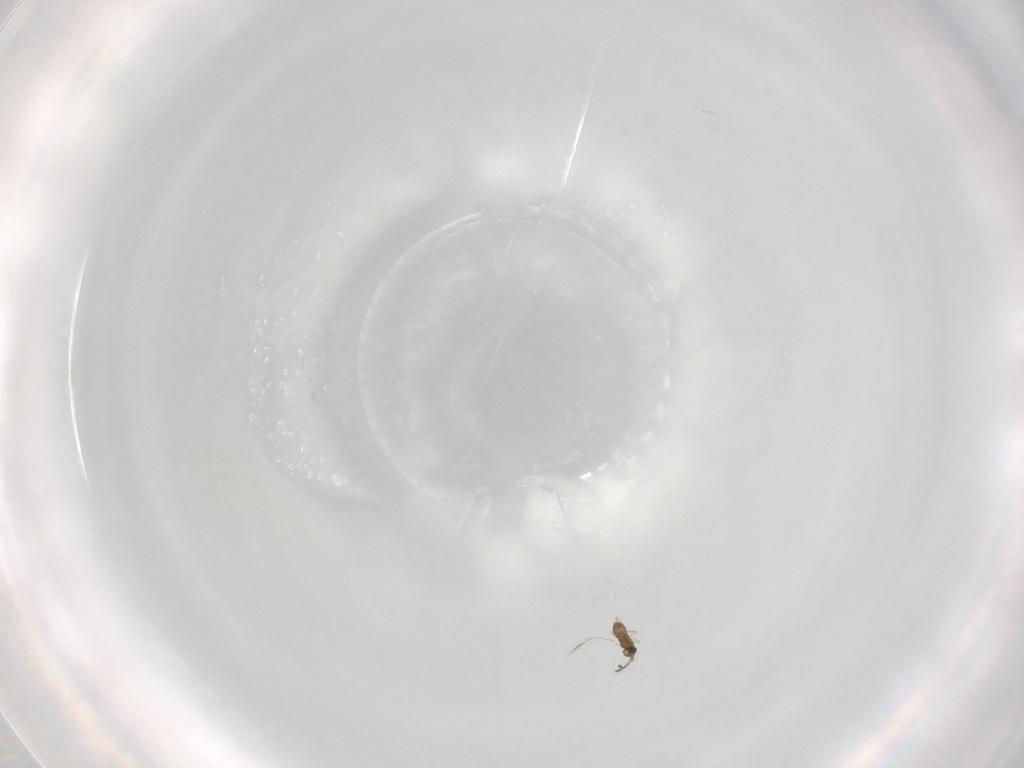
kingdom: Animalia
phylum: Arthropoda
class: Insecta
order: Hymenoptera
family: Mymaridae
